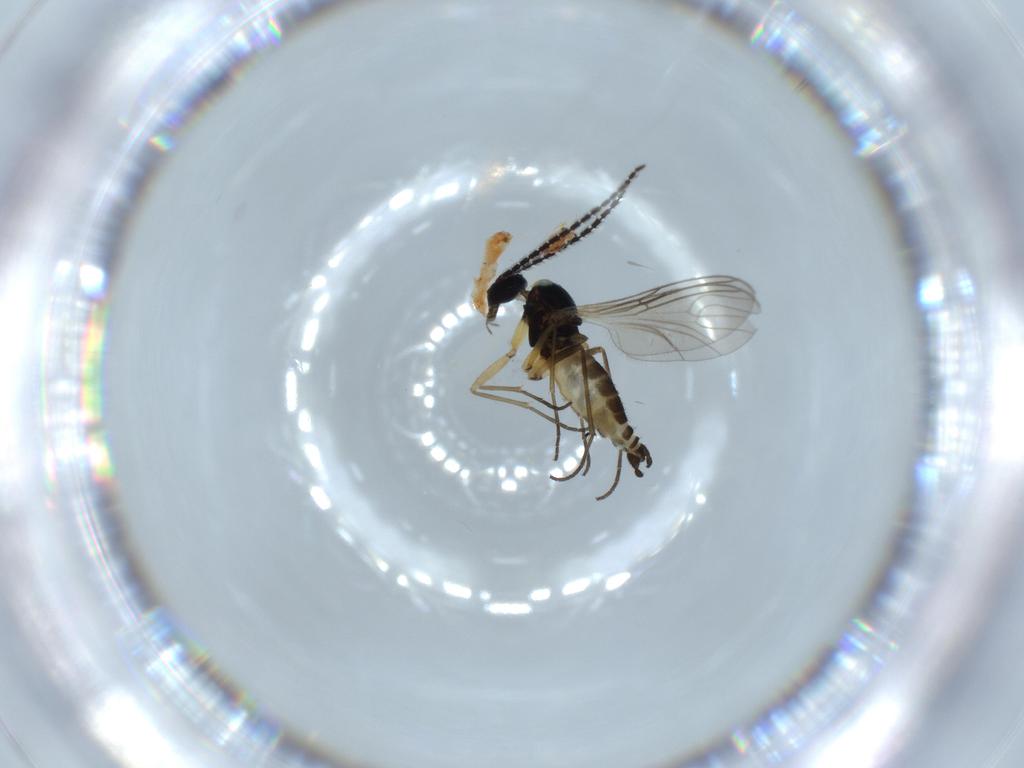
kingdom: Animalia
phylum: Arthropoda
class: Insecta
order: Diptera
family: Sciaridae
